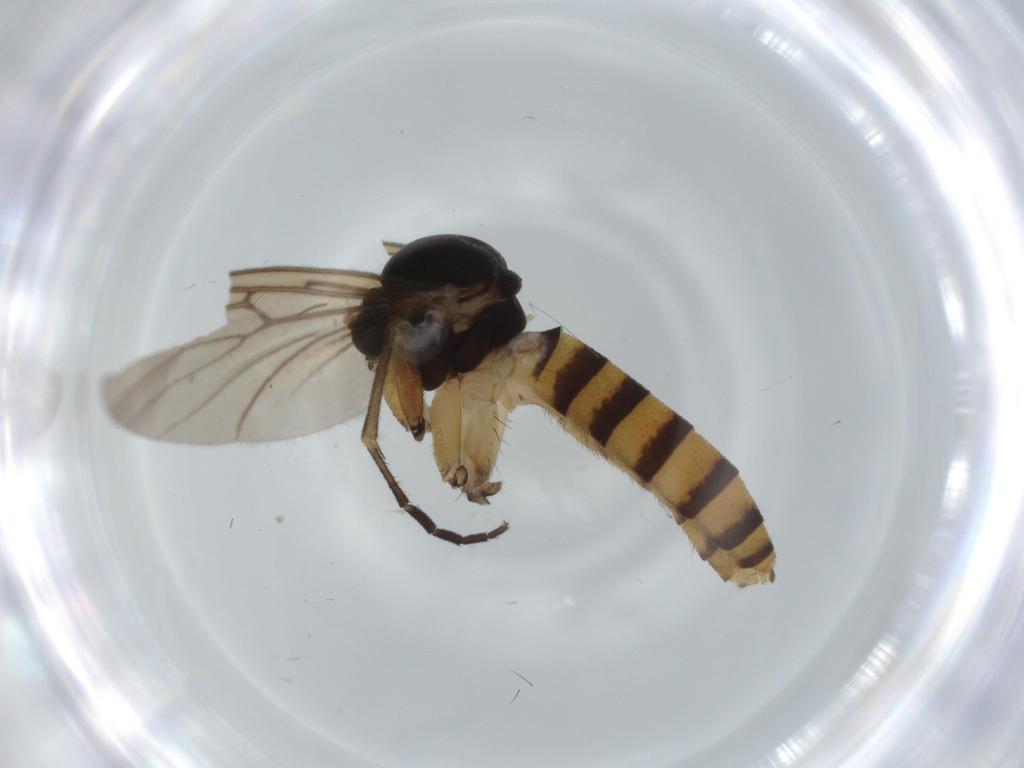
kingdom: Animalia
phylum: Arthropoda
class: Insecta
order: Diptera
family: Mycetophilidae
